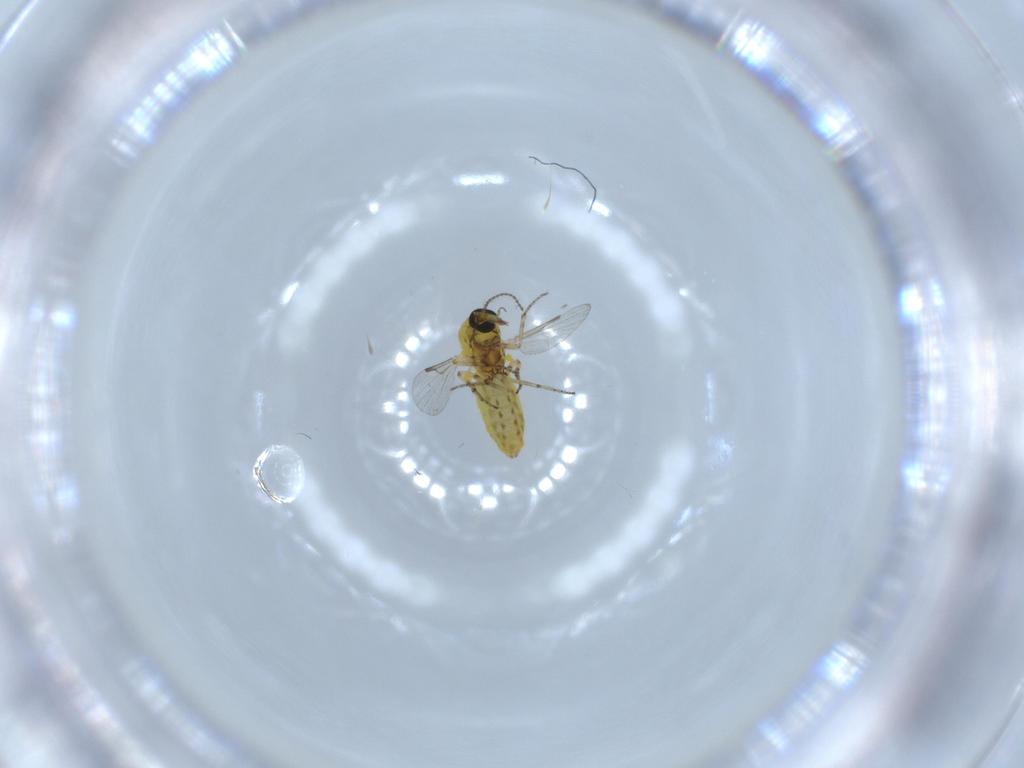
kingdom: Animalia
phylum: Arthropoda
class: Insecta
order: Diptera
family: Ceratopogonidae
